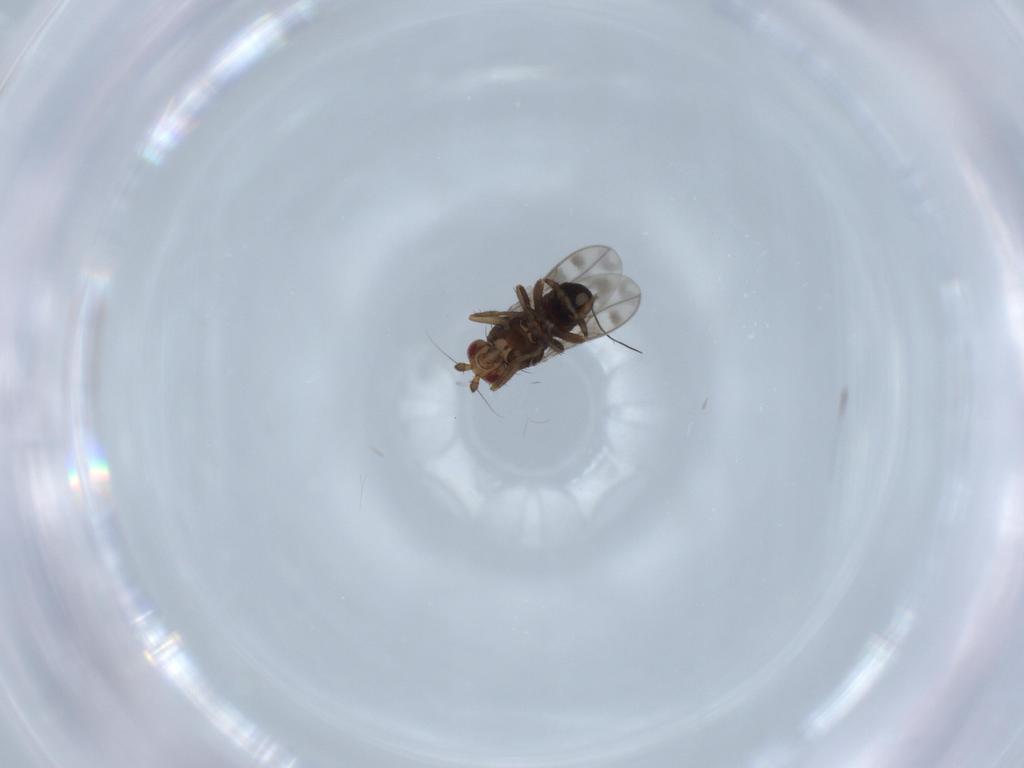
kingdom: Animalia
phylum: Arthropoda
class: Insecta
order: Diptera
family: Sphaeroceridae
